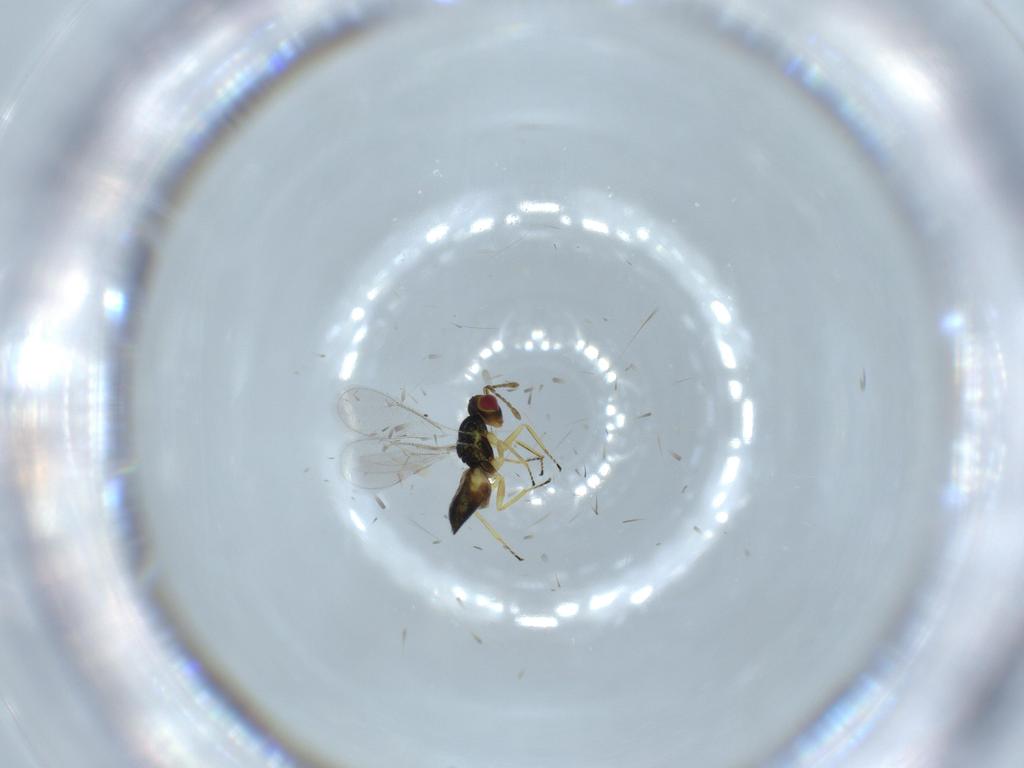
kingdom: Animalia
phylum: Arthropoda
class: Insecta
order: Hymenoptera
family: Eulophidae
